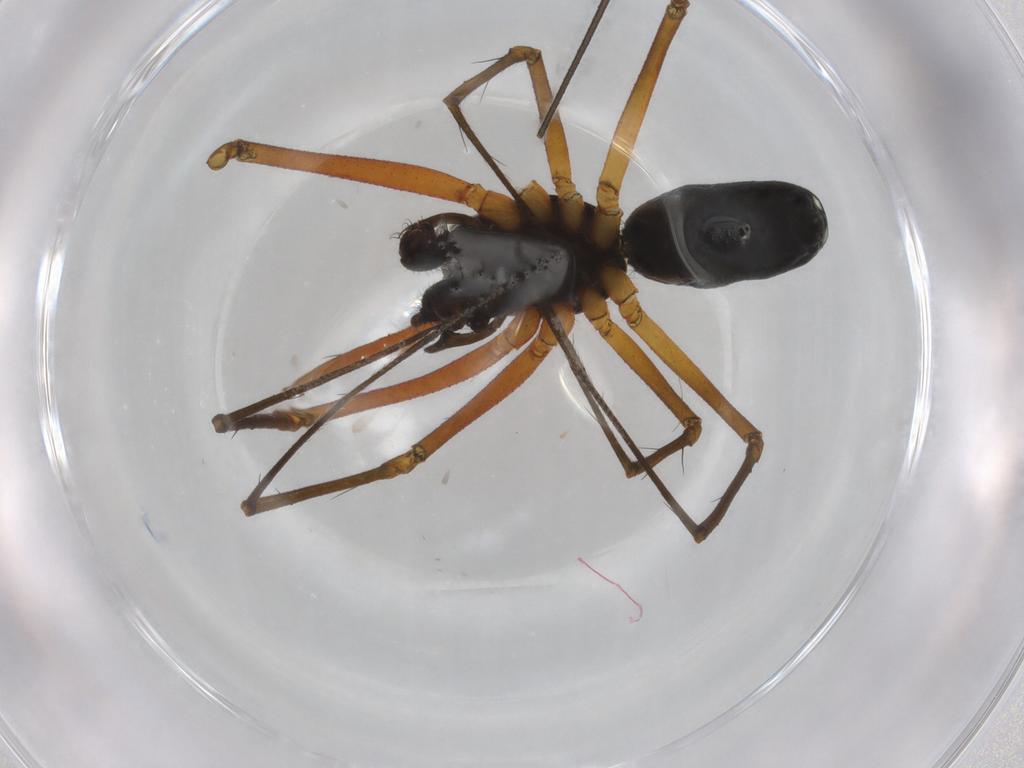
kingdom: Animalia
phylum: Arthropoda
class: Arachnida
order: Araneae
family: Linyphiidae
